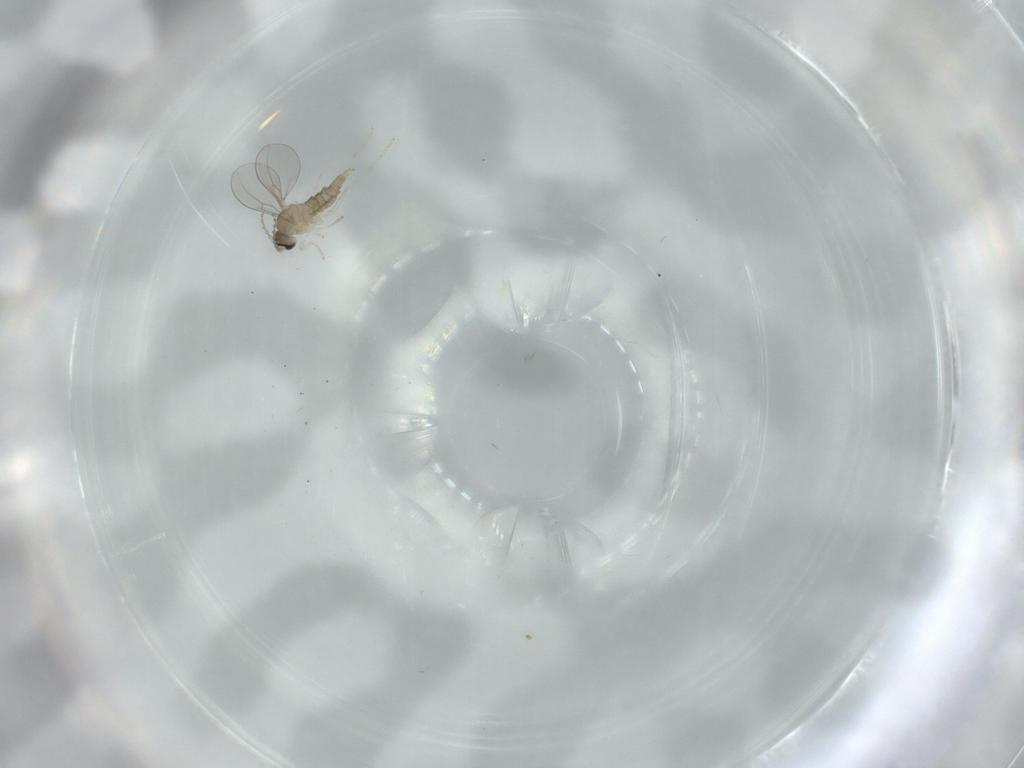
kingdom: Animalia
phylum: Arthropoda
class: Insecta
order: Diptera
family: Cecidomyiidae
